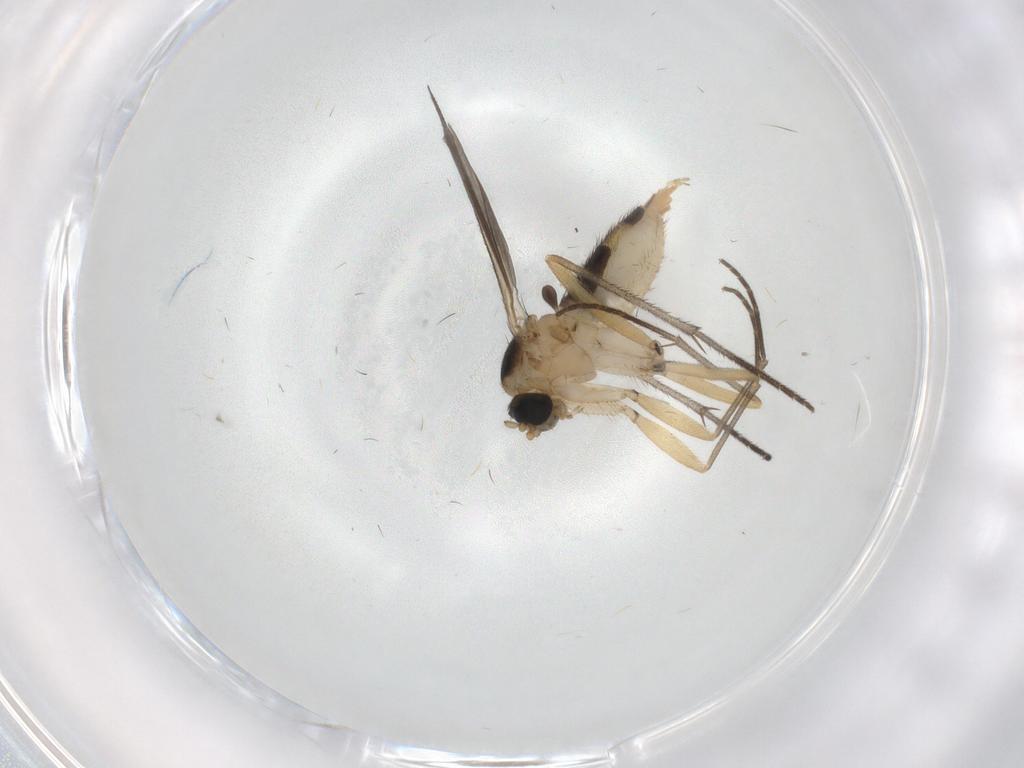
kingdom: Animalia
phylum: Arthropoda
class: Insecta
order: Diptera
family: Sciaridae
